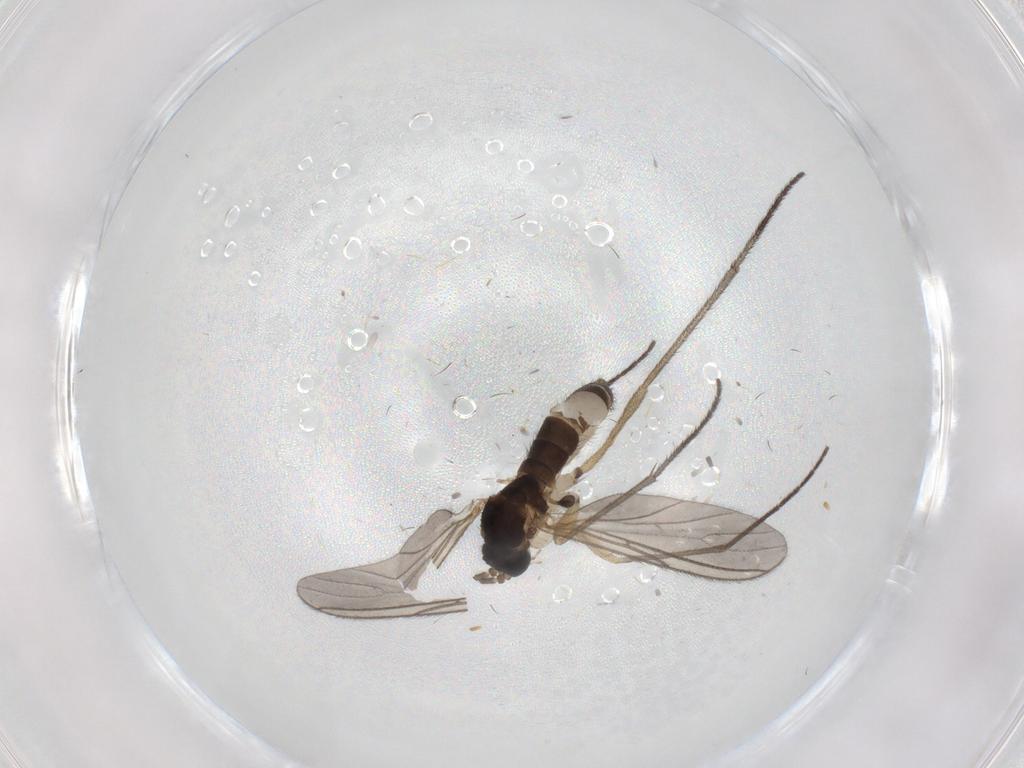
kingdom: Animalia
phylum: Arthropoda
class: Insecta
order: Diptera
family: Sciaridae
